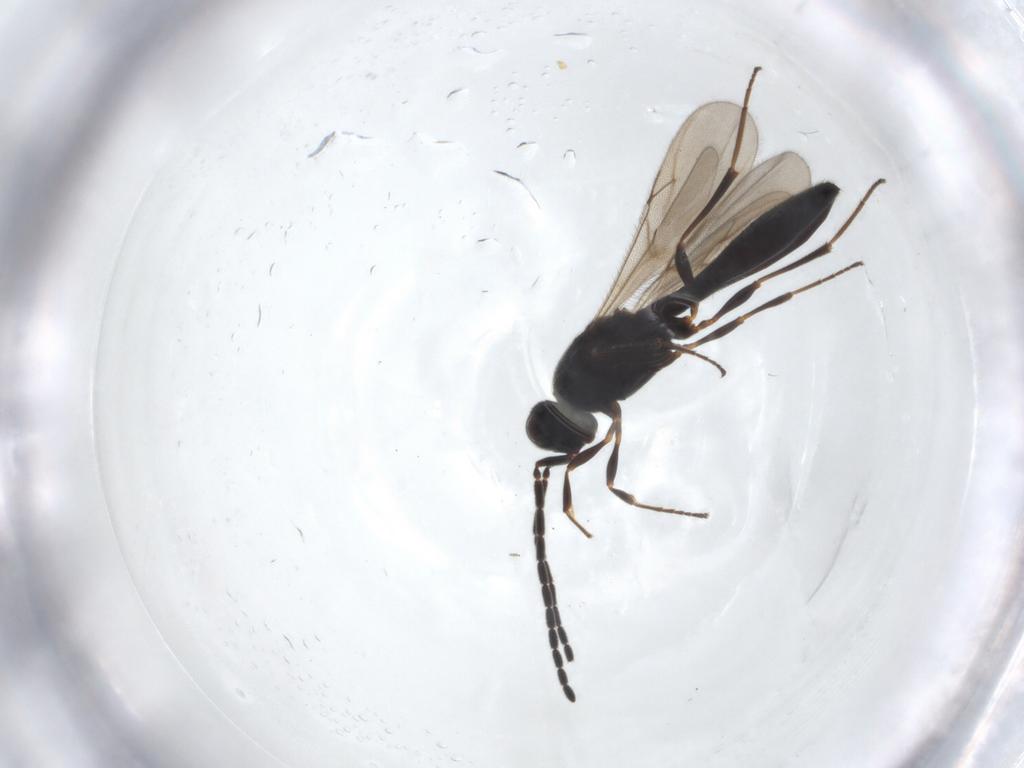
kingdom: Animalia
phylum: Arthropoda
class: Insecta
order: Hymenoptera
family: Scelionidae
